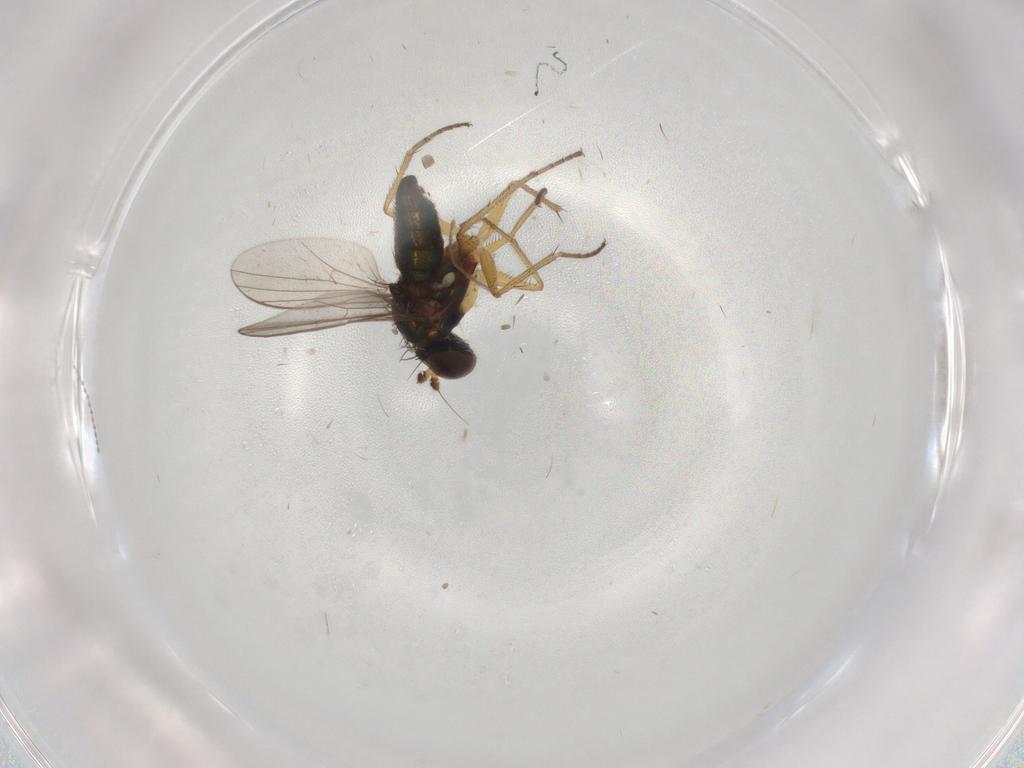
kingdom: Animalia
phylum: Arthropoda
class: Insecta
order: Diptera
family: Cecidomyiidae
